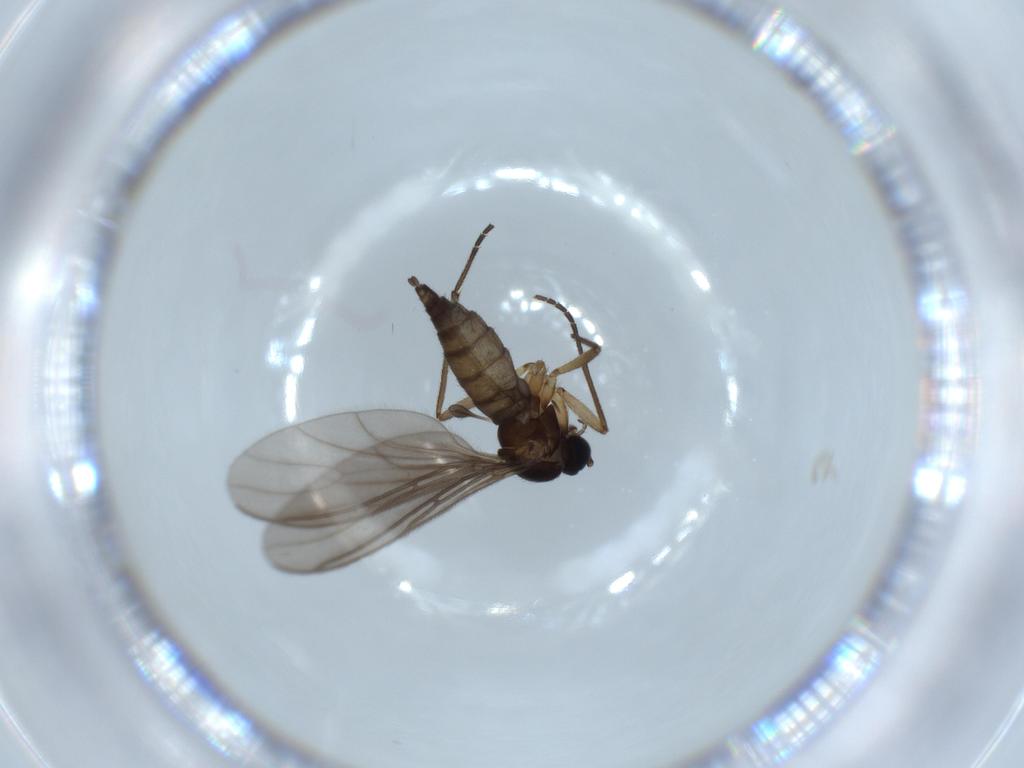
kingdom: Animalia
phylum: Arthropoda
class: Insecta
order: Diptera
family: Sciaridae
